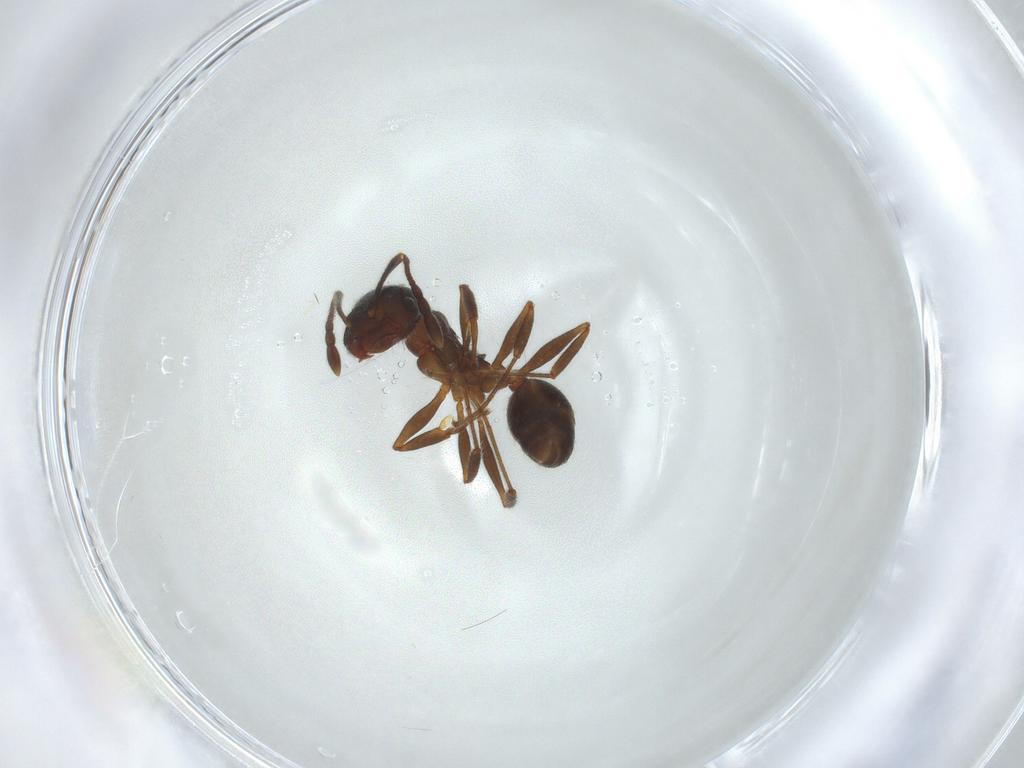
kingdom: Animalia
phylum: Arthropoda
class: Insecta
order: Hymenoptera
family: Formicidae
